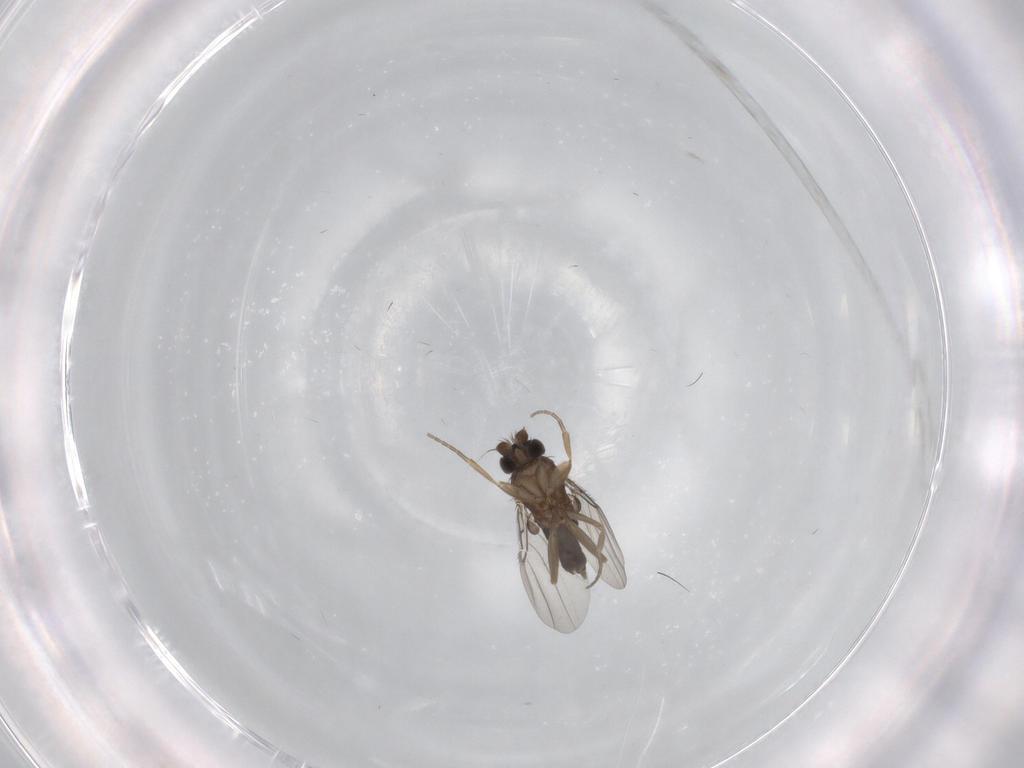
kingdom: Animalia
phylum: Arthropoda
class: Insecta
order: Diptera
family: Phoridae
